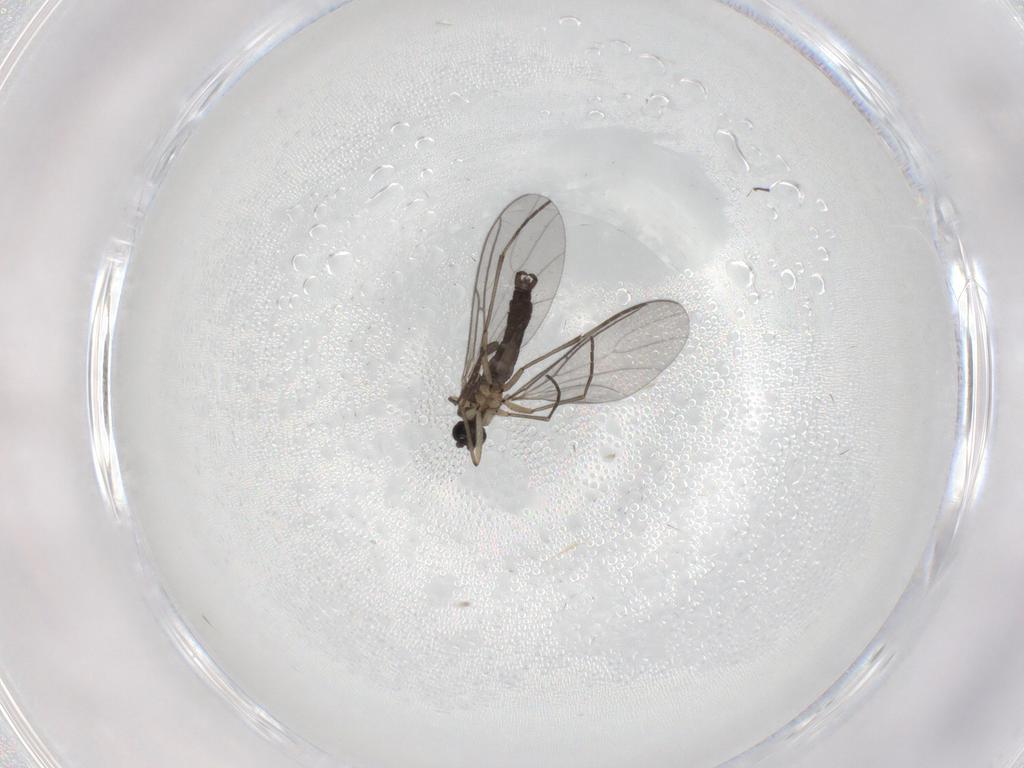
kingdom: Animalia
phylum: Arthropoda
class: Insecta
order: Diptera
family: Sciaridae
